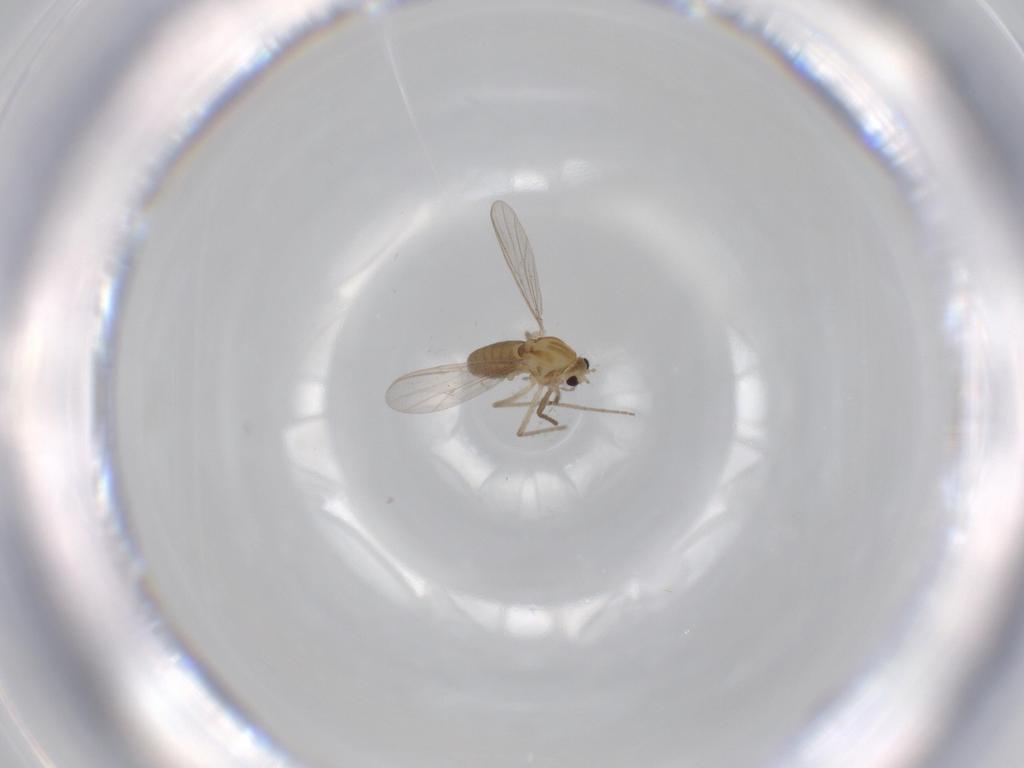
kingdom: Animalia
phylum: Arthropoda
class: Insecta
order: Diptera
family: Chironomidae
